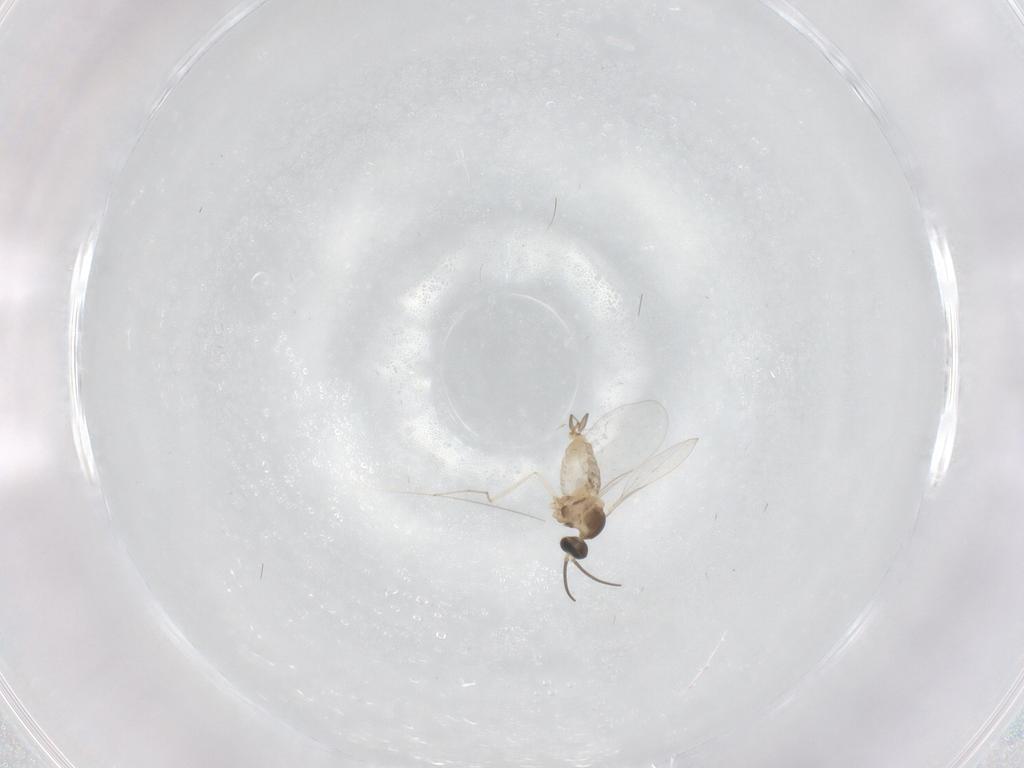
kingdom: Animalia
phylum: Arthropoda
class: Insecta
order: Diptera
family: Cecidomyiidae
